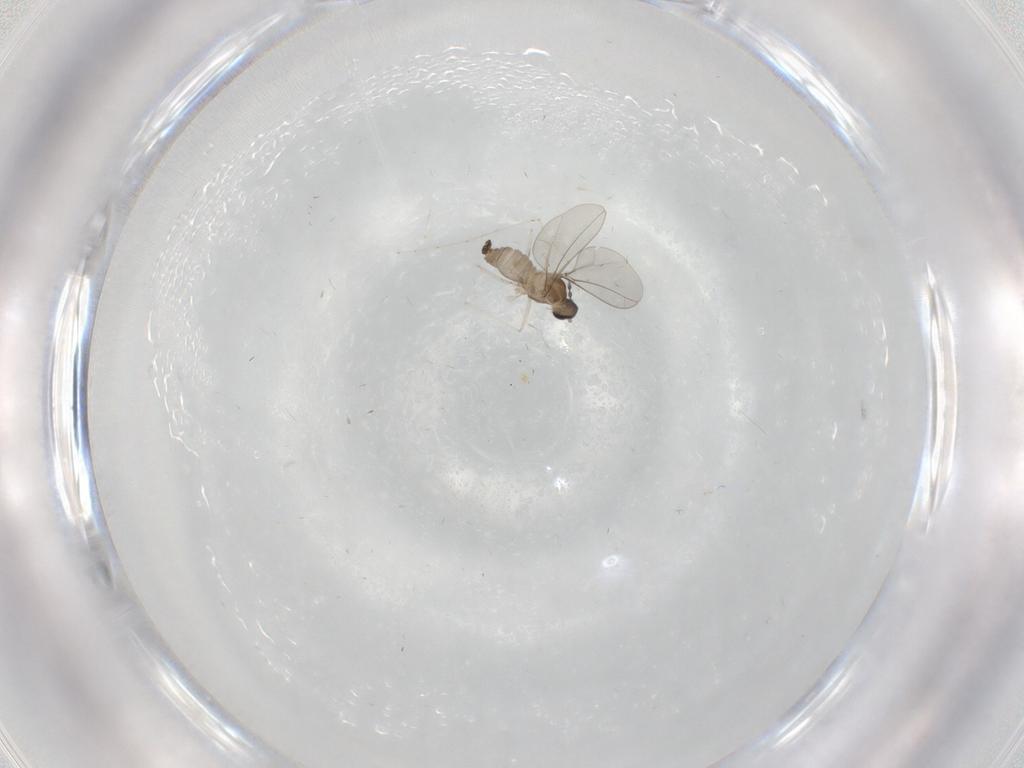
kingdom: Animalia
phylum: Arthropoda
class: Insecta
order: Diptera
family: Cecidomyiidae
